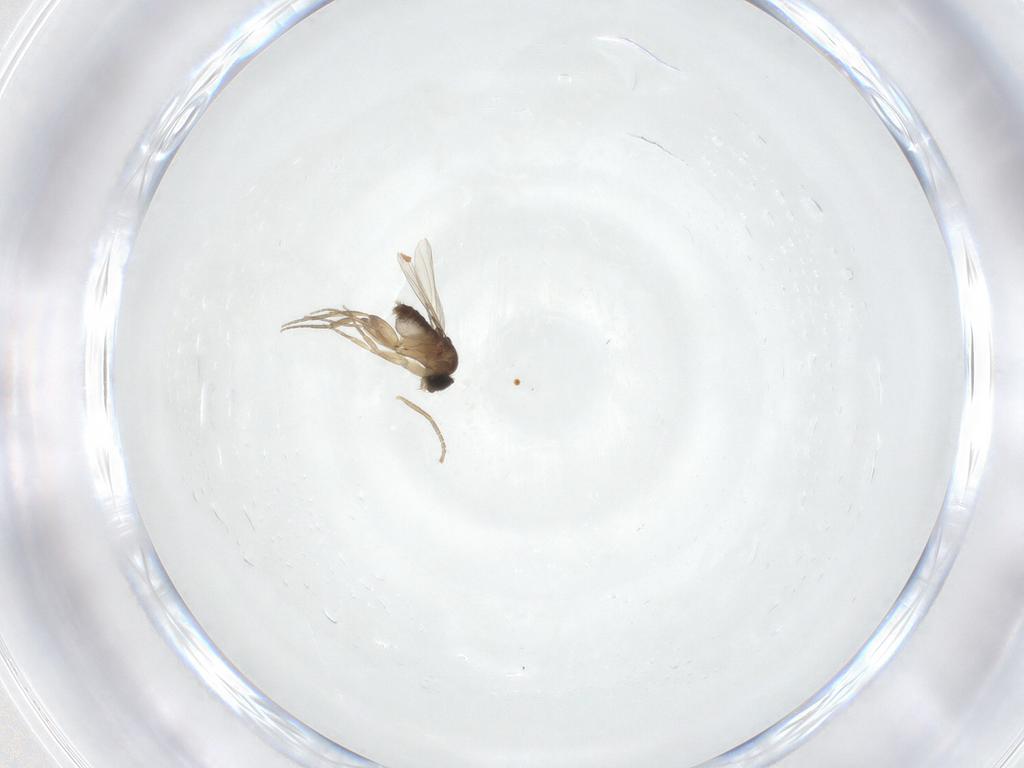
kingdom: Animalia
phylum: Arthropoda
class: Insecta
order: Diptera
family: Phoridae
